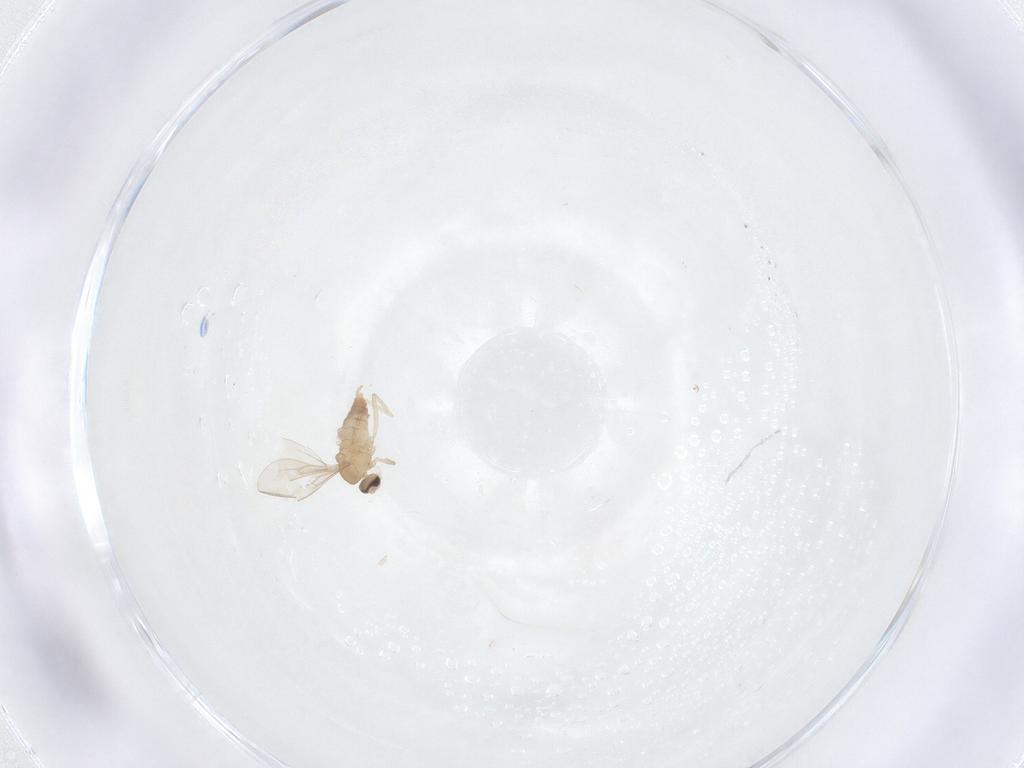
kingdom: Animalia
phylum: Arthropoda
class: Insecta
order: Diptera
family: Cecidomyiidae
